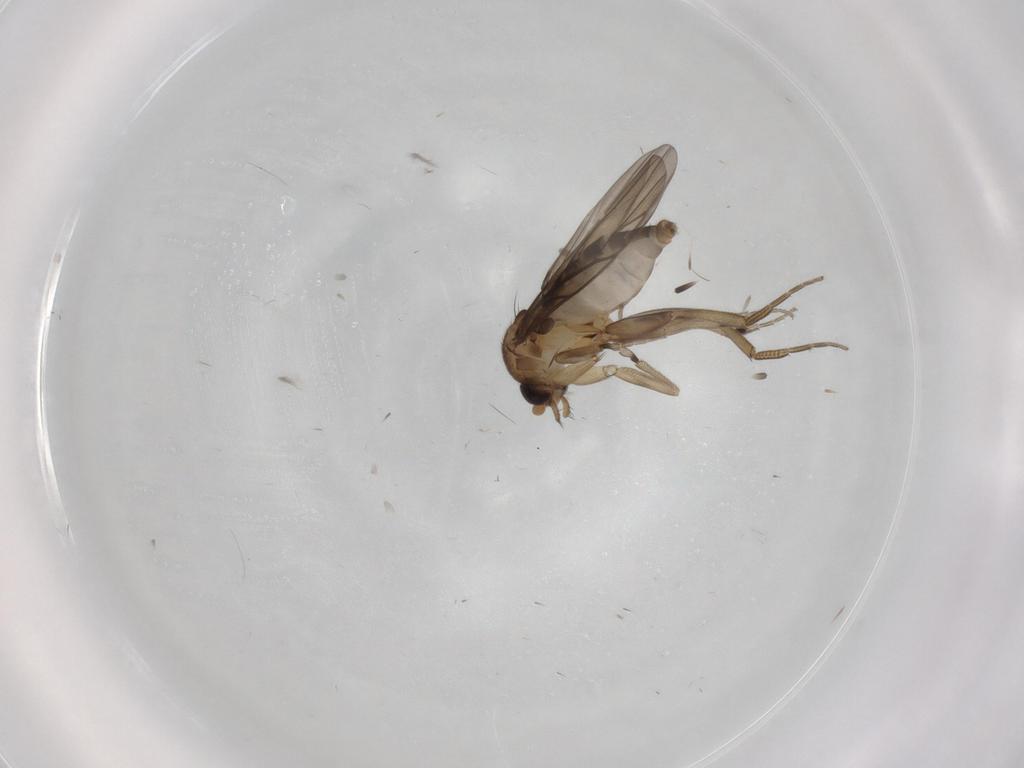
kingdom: Animalia
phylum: Arthropoda
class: Insecta
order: Diptera
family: Phoridae
